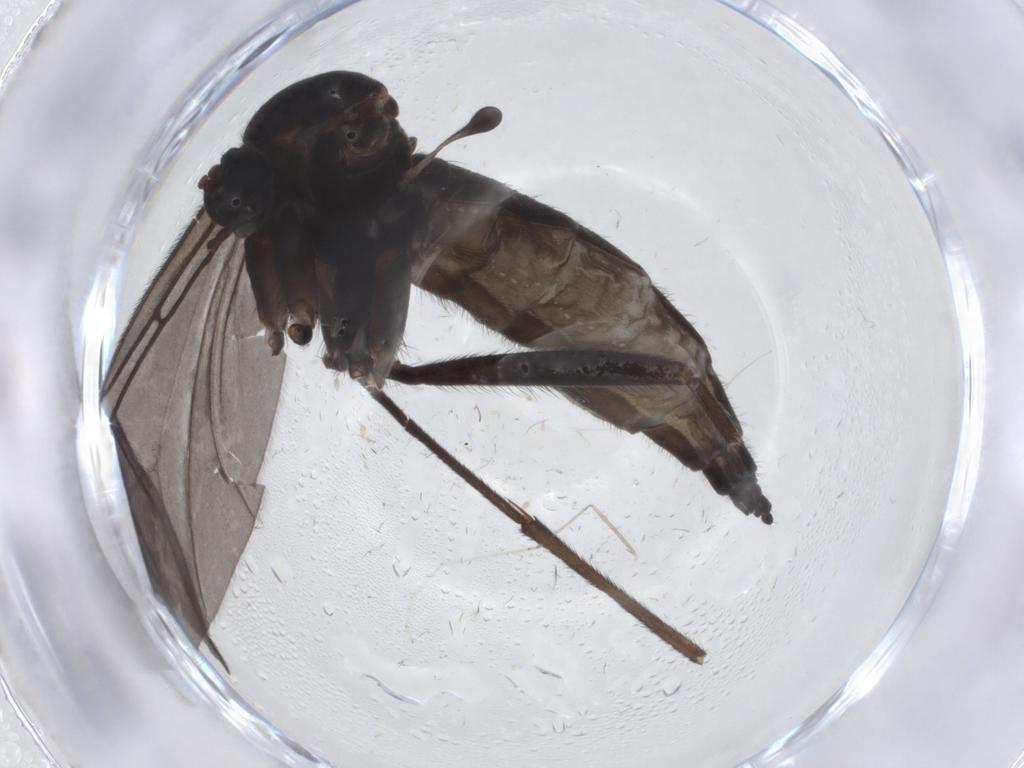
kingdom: Animalia
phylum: Arthropoda
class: Insecta
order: Diptera
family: Sciaridae
